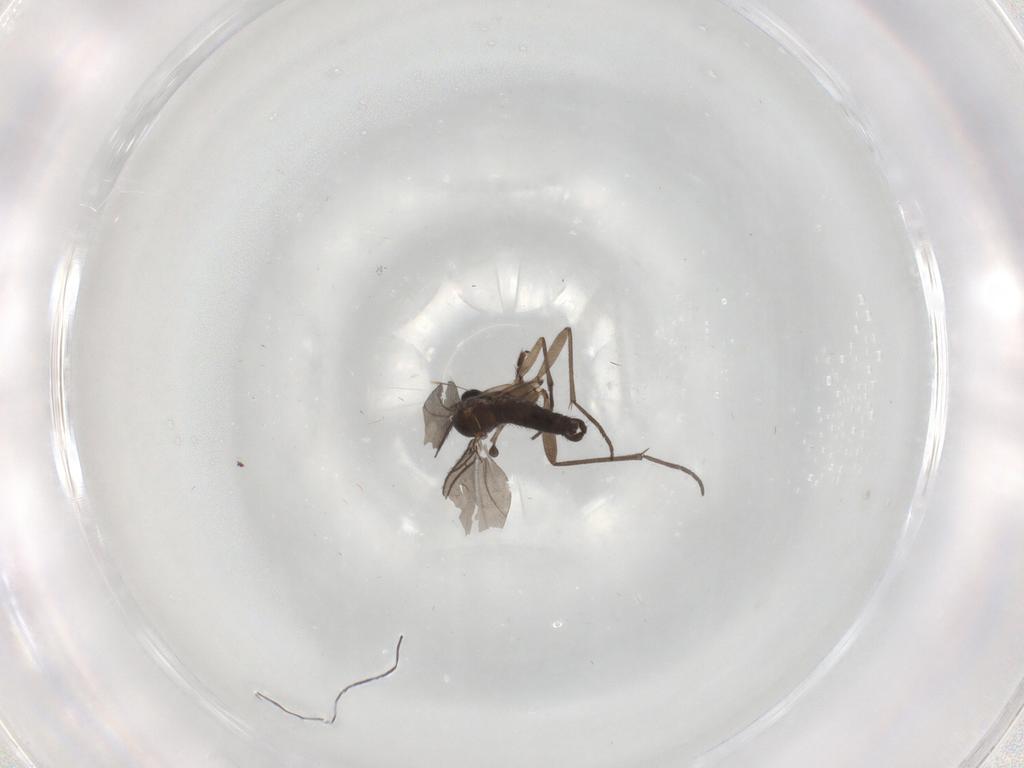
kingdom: Animalia
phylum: Arthropoda
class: Insecta
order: Diptera
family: Sciaridae
